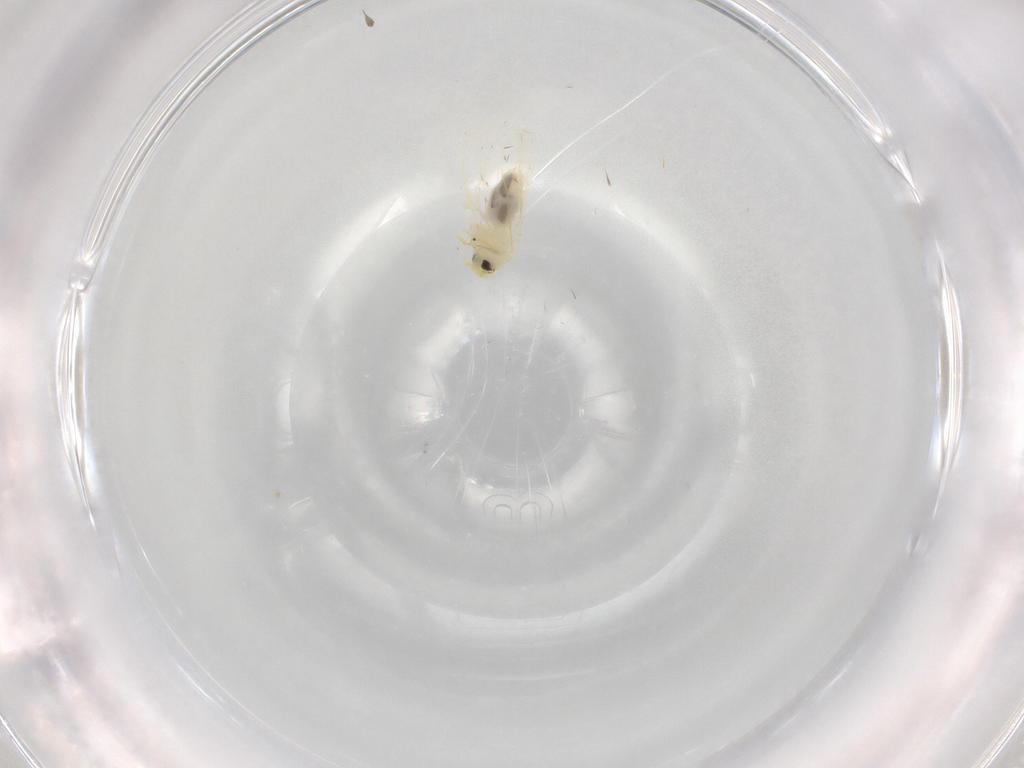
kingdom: Animalia
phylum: Arthropoda
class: Insecta
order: Hemiptera
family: Aleyrodidae
